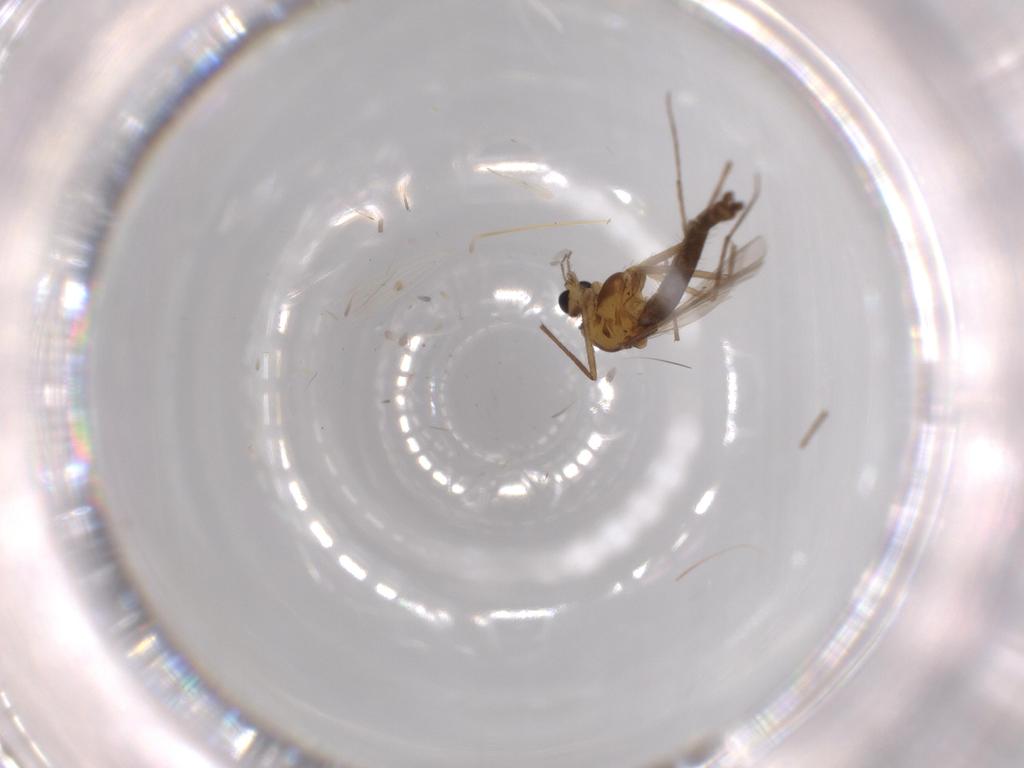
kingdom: Animalia
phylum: Arthropoda
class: Insecta
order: Diptera
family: Chironomidae
